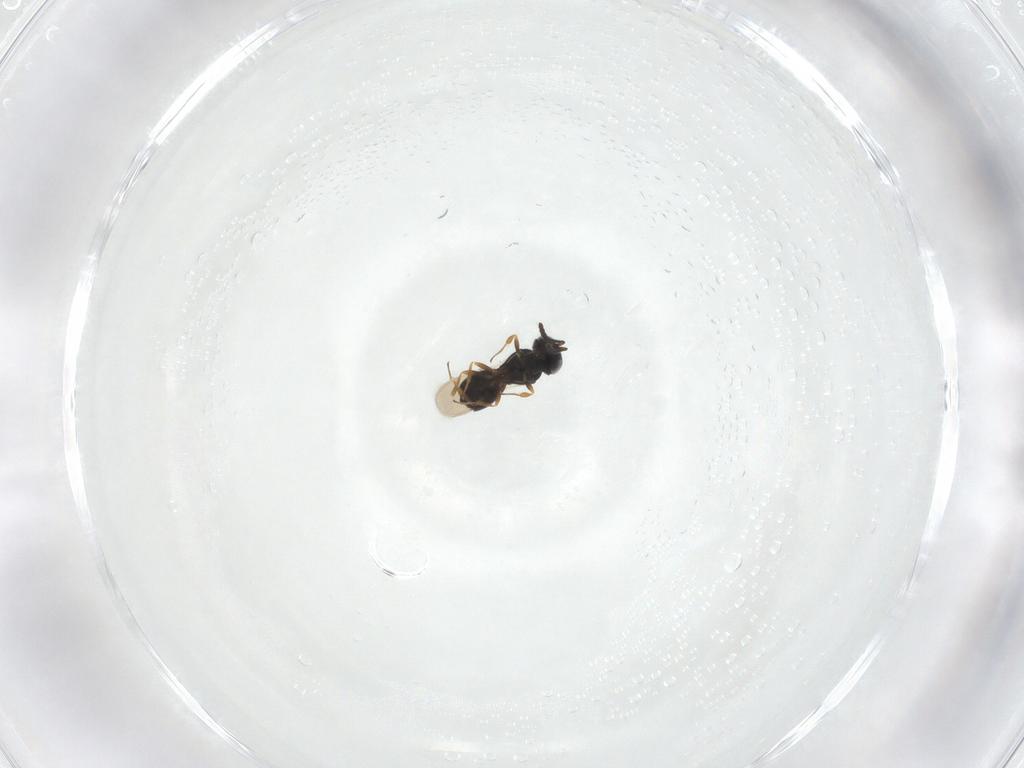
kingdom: Animalia
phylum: Arthropoda
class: Insecta
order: Hymenoptera
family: Formicidae
